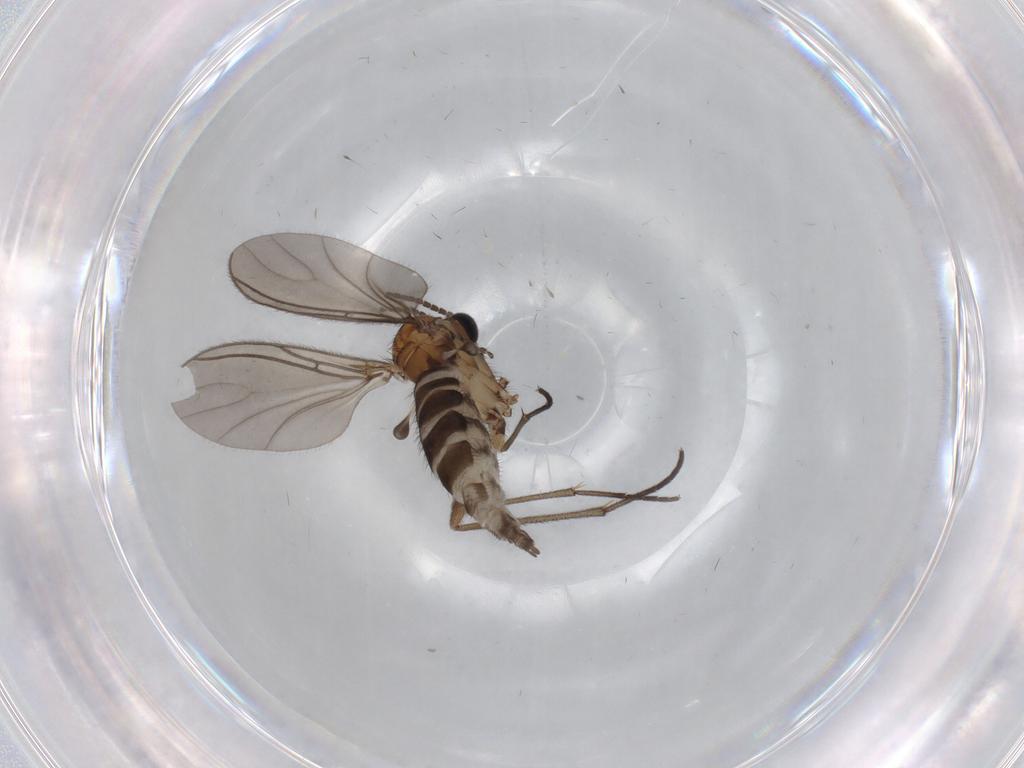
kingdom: Animalia
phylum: Arthropoda
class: Insecta
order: Diptera
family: Sciaridae
